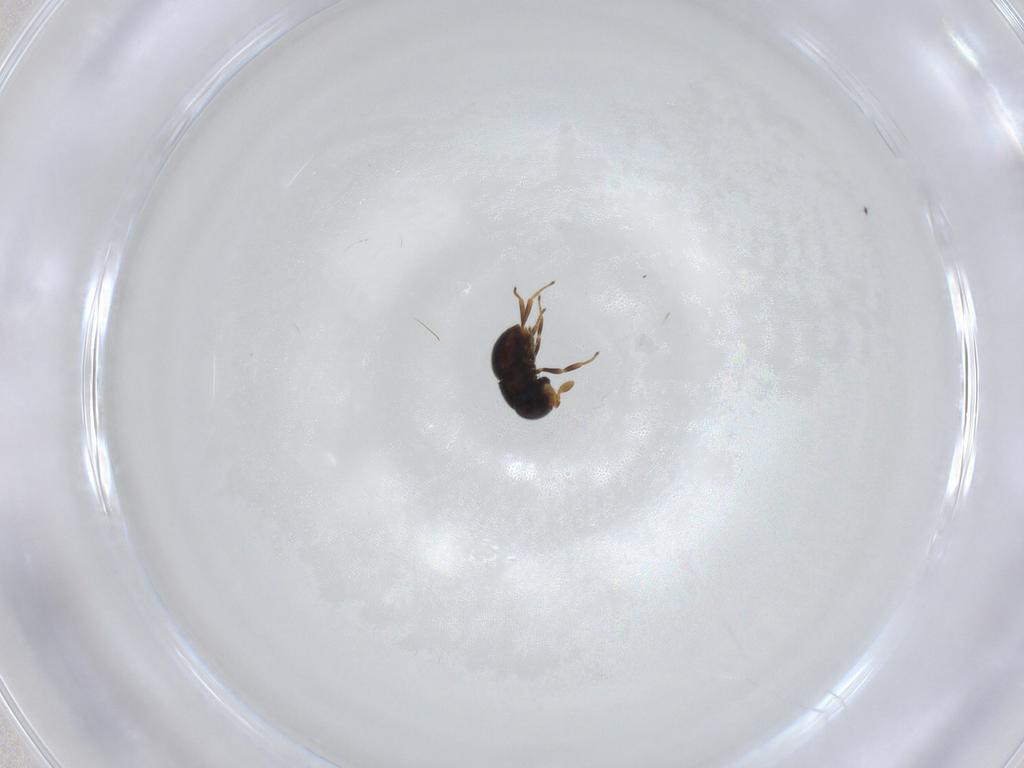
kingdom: Animalia
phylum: Arthropoda
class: Insecta
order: Hymenoptera
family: Scelionidae
